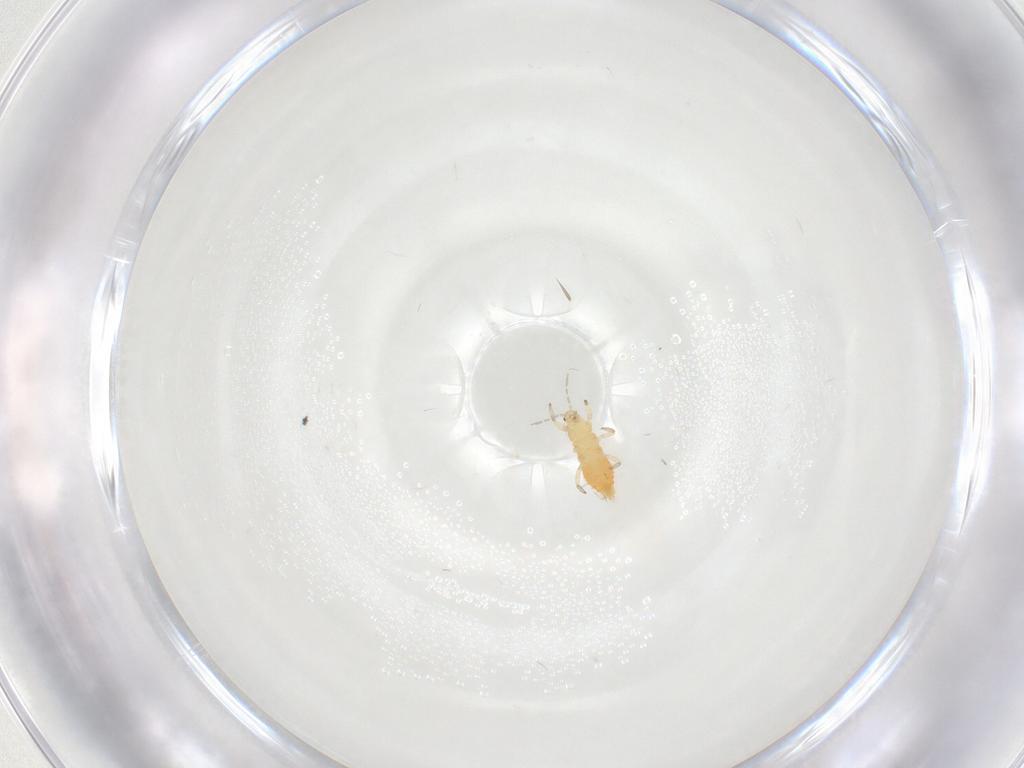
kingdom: Animalia
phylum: Arthropoda
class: Insecta
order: Thysanoptera
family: Aeolothripidae
